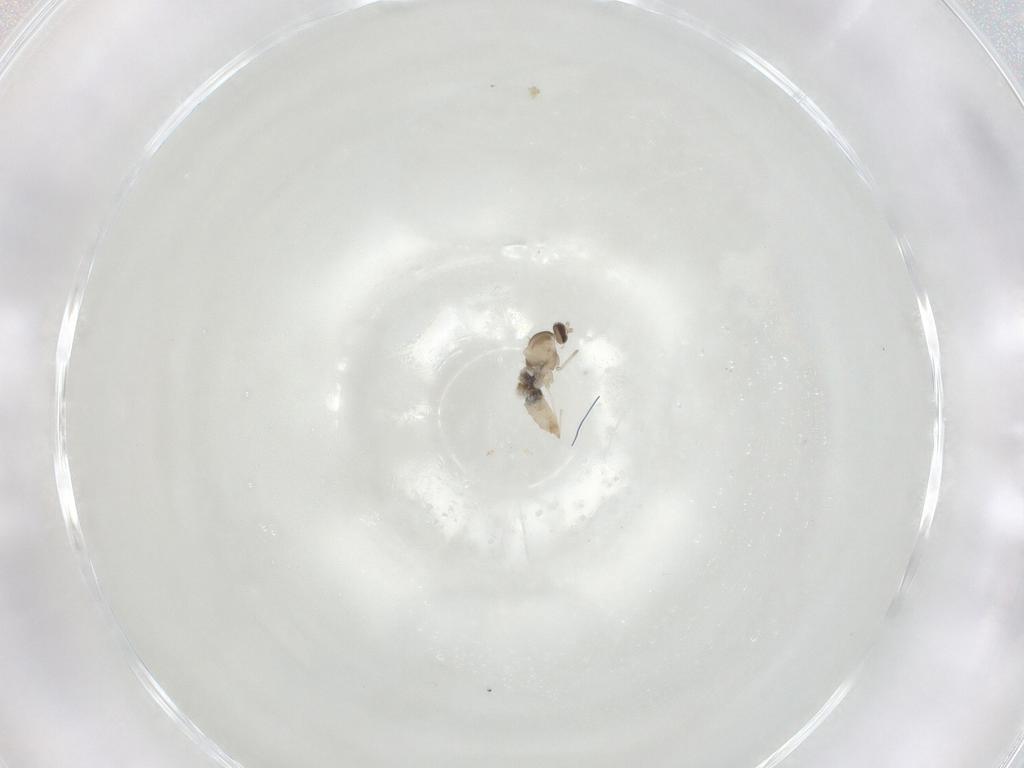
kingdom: Animalia
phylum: Arthropoda
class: Insecta
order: Diptera
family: Cecidomyiidae
